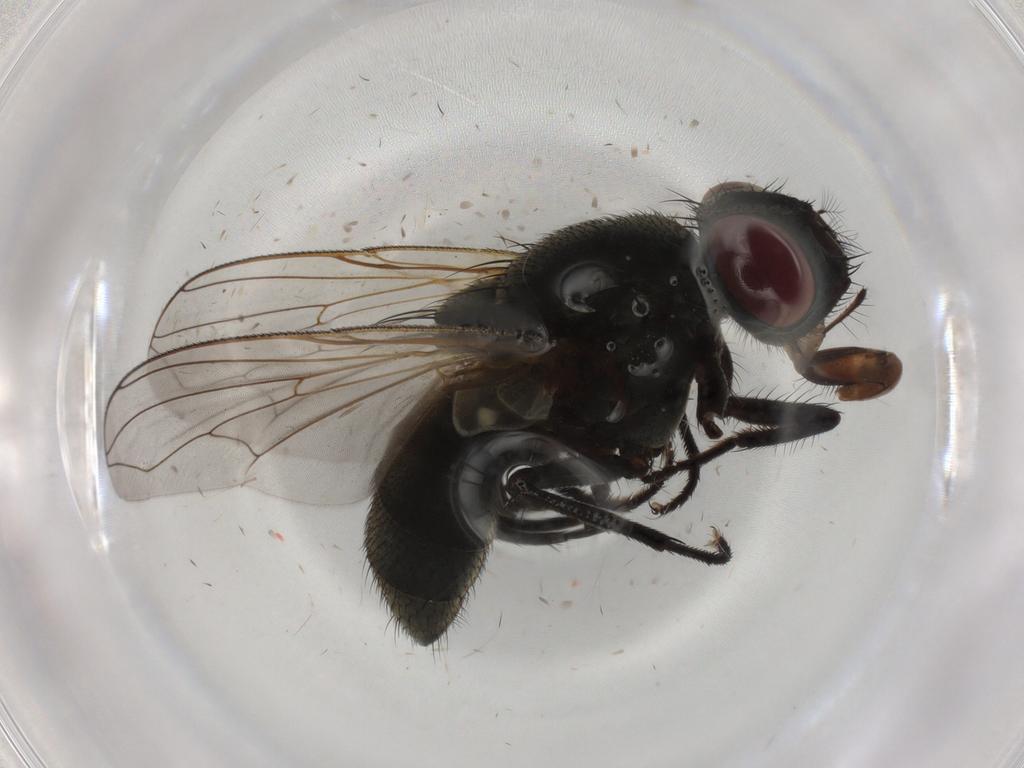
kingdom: Animalia
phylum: Arthropoda
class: Insecta
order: Diptera
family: Muscidae
